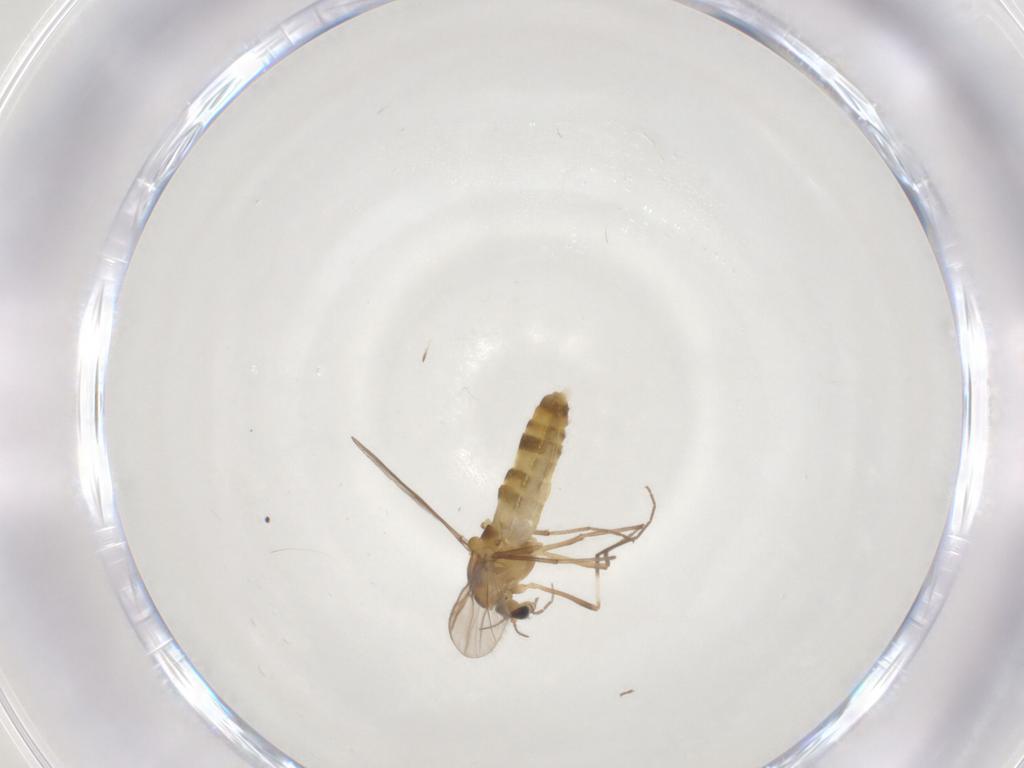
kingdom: Animalia
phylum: Arthropoda
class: Insecta
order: Diptera
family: Chironomidae
